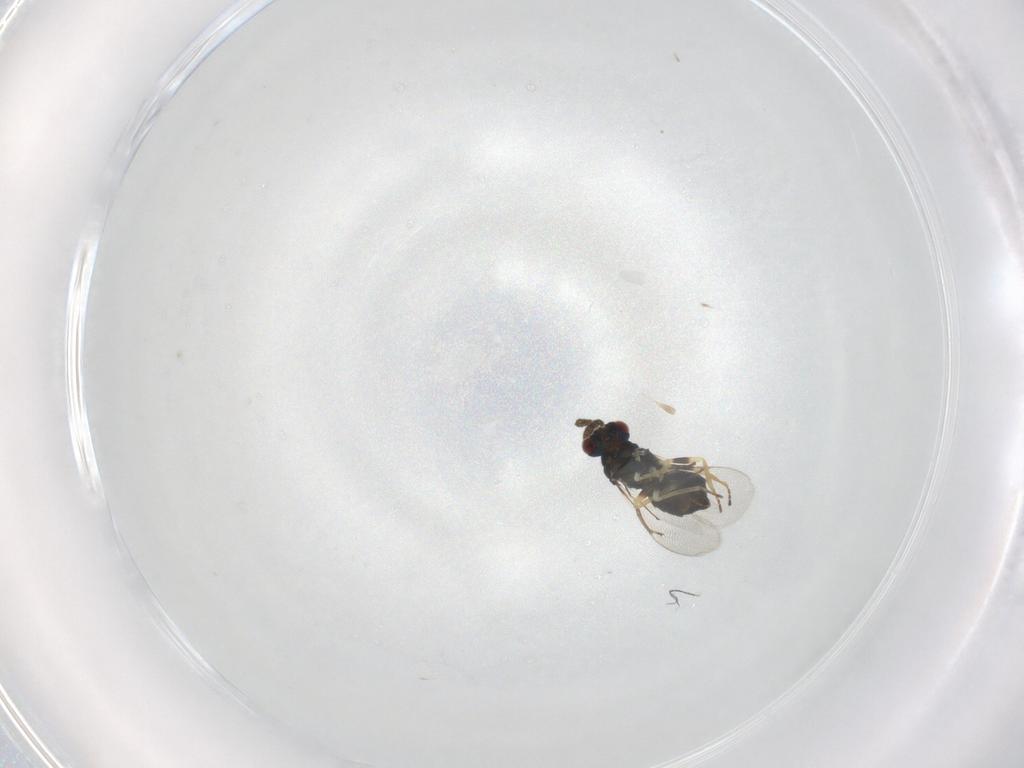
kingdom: Animalia
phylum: Arthropoda
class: Insecta
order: Hymenoptera
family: Eulophidae
